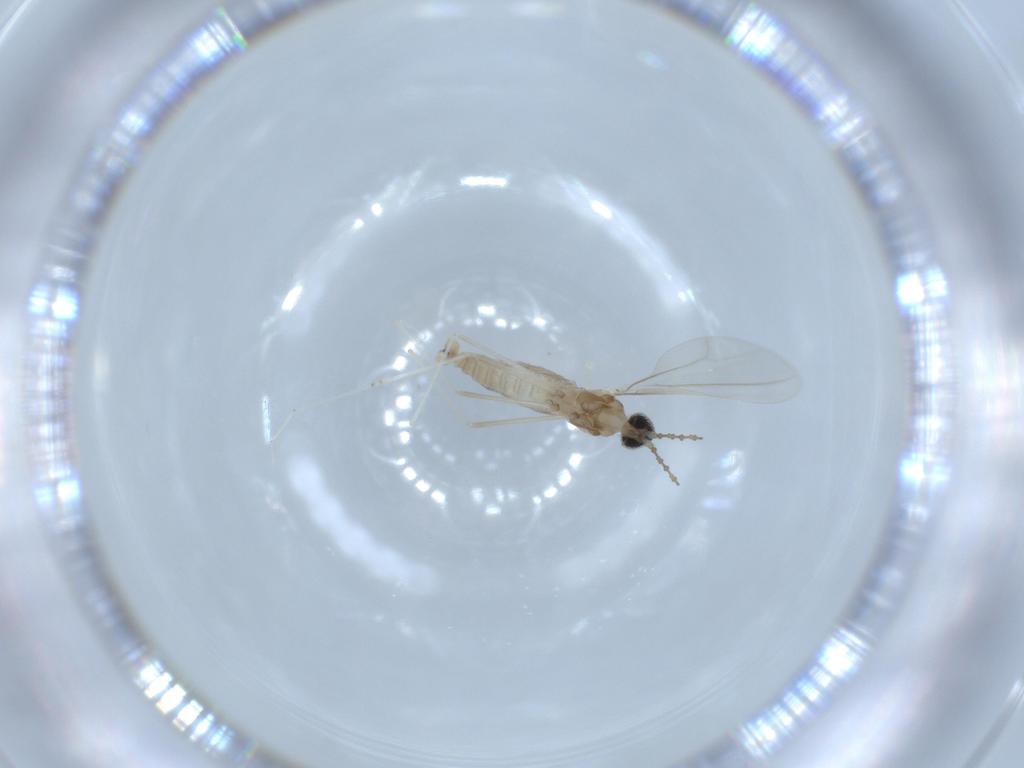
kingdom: Animalia
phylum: Arthropoda
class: Insecta
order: Diptera
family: Cecidomyiidae
